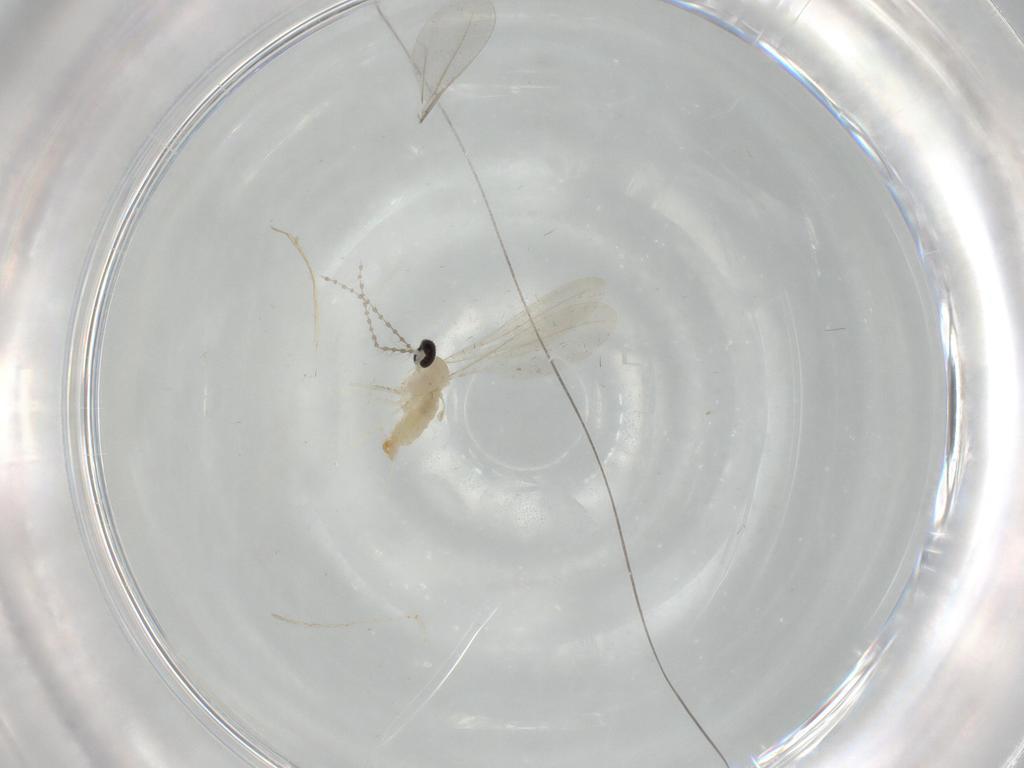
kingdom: Animalia
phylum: Arthropoda
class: Insecta
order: Diptera
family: Cecidomyiidae
